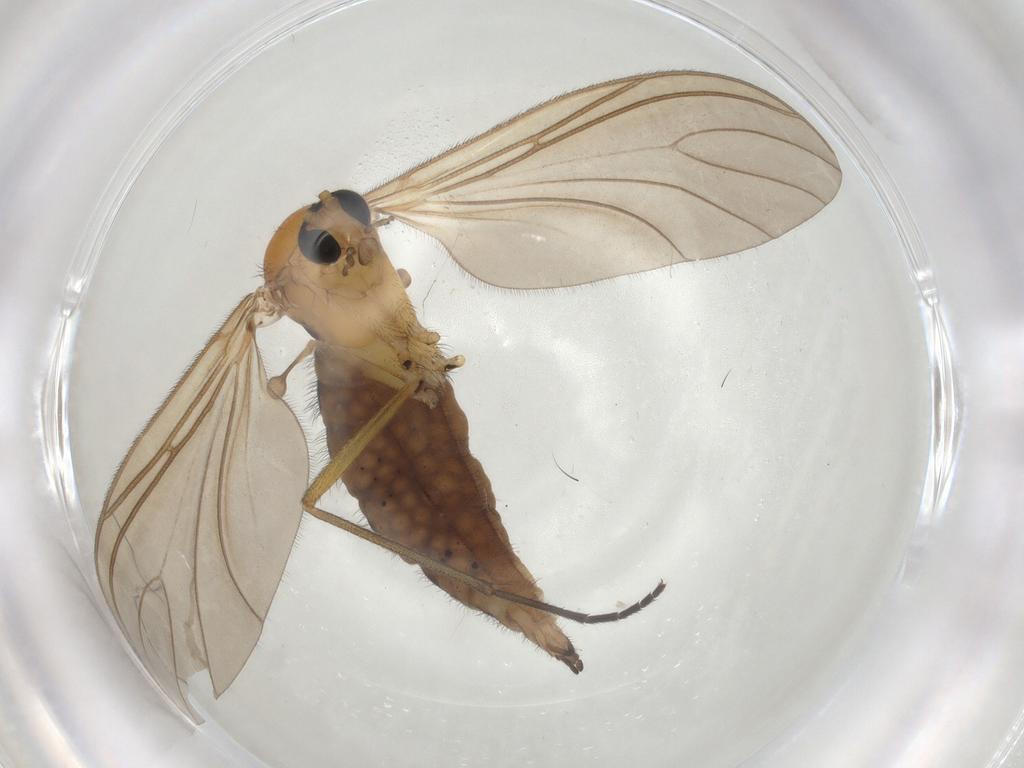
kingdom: Animalia
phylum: Arthropoda
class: Insecta
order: Diptera
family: Sciaridae
